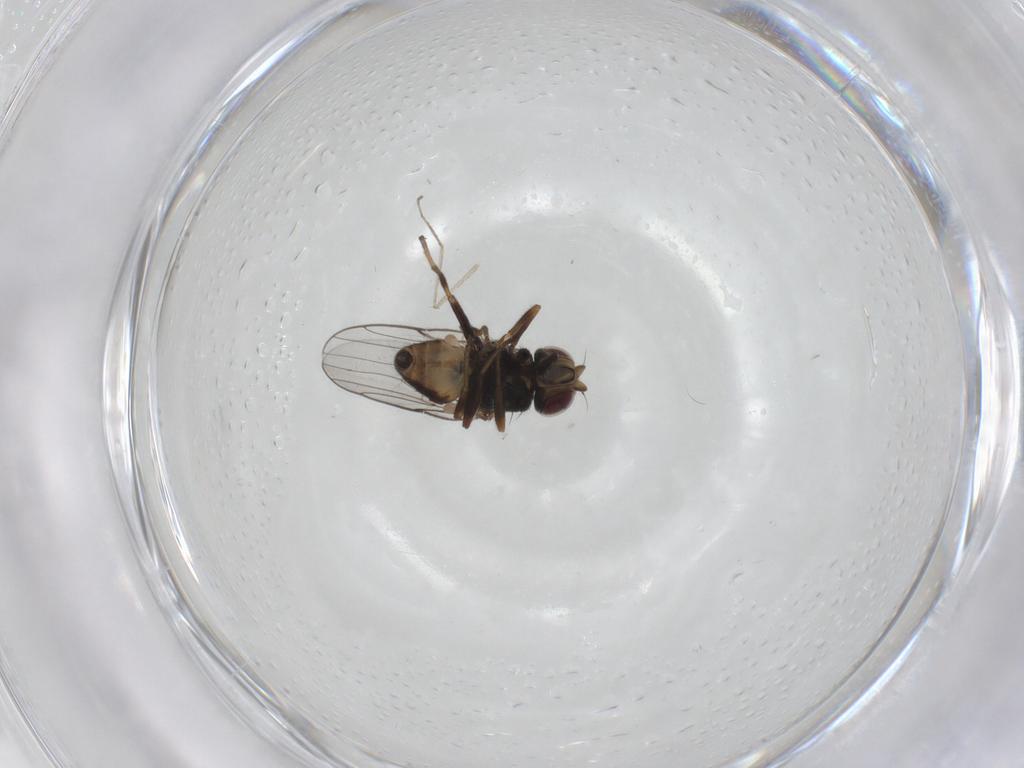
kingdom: Animalia
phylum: Arthropoda
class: Insecta
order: Diptera
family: Chloropidae
